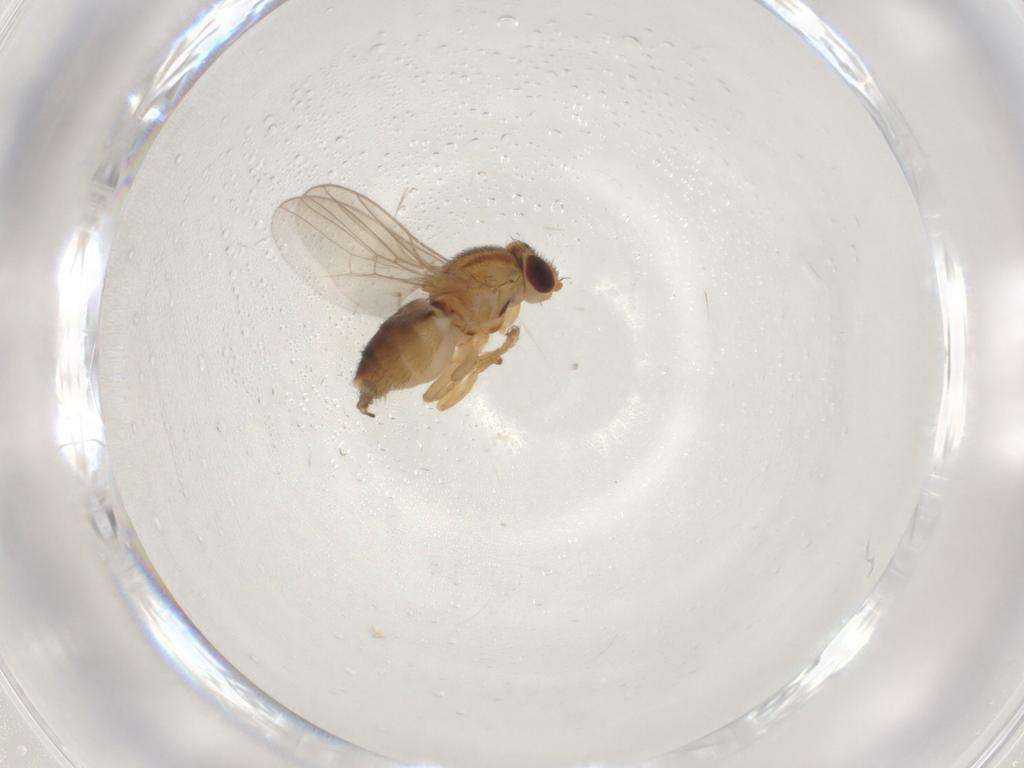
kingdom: Animalia
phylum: Arthropoda
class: Insecta
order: Diptera
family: Chloropidae
